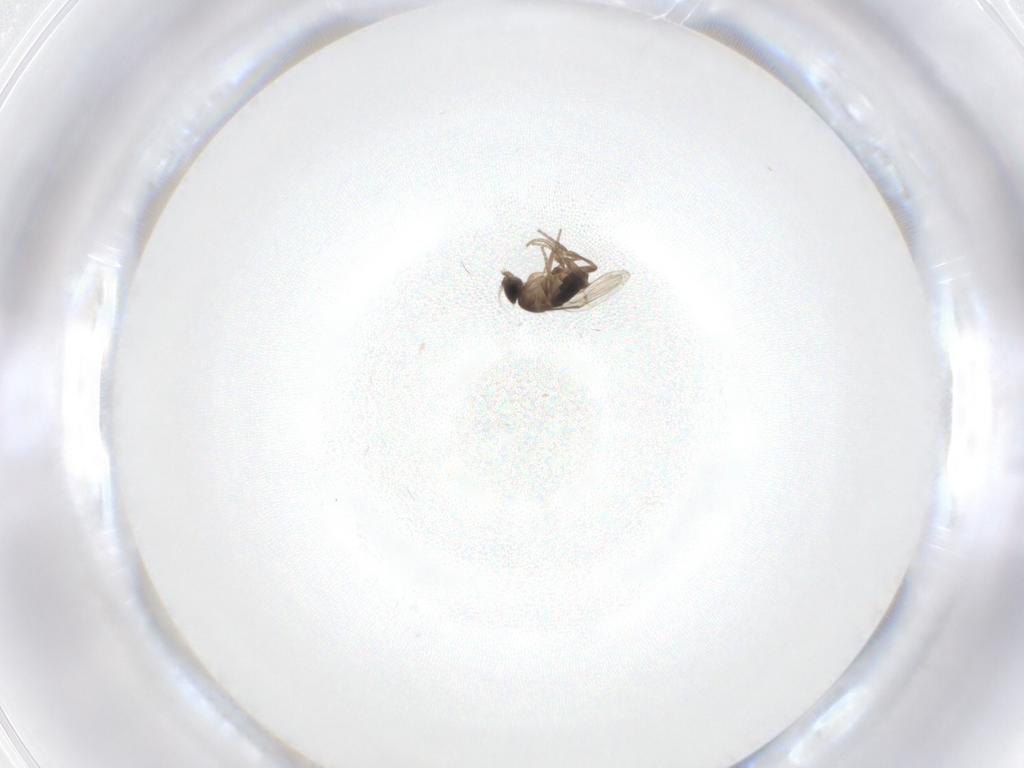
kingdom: Animalia
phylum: Arthropoda
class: Insecta
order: Diptera
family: Phoridae
